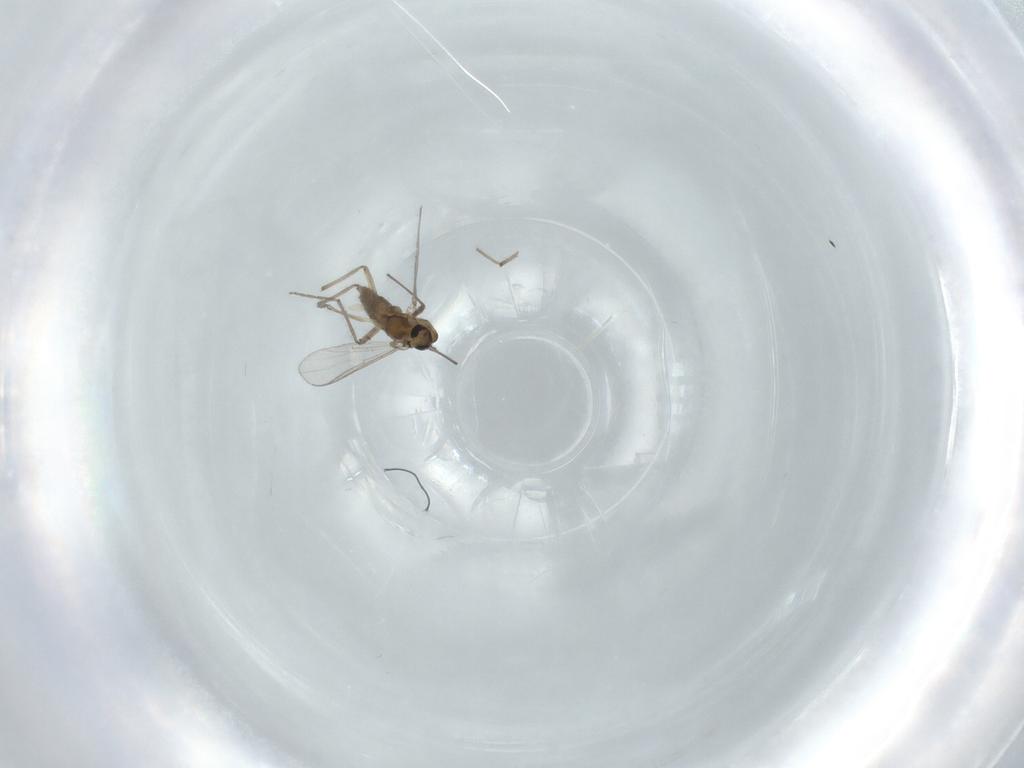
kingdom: Animalia
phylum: Arthropoda
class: Insecta
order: Diptera
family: Chironomidae
